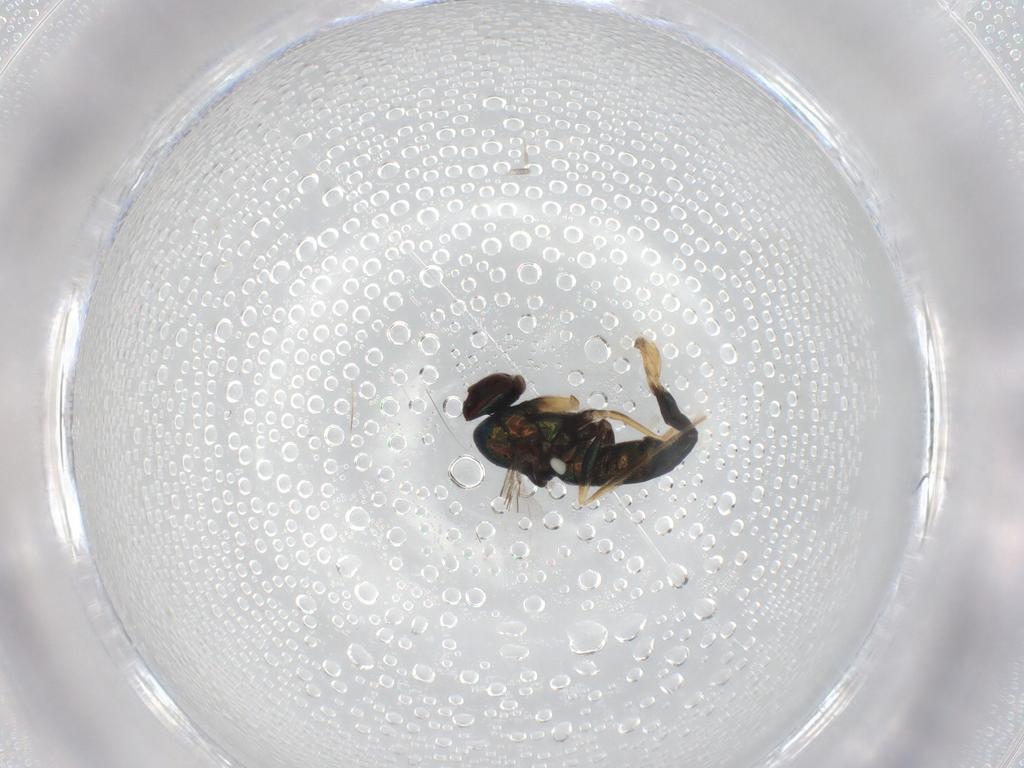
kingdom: Animalia
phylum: Arthropoda
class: Insecta
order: Diptera
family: Dolichopodidae
